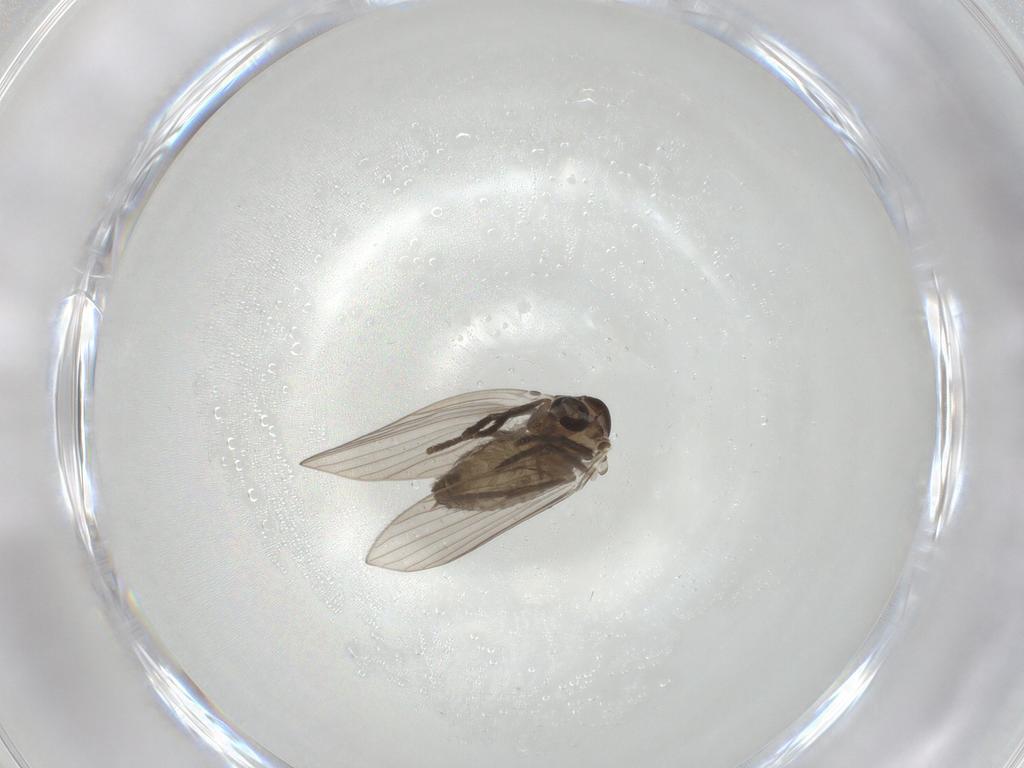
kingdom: Animalia
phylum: Arthropoda
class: Insecta
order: Diptera
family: Psychodidae
